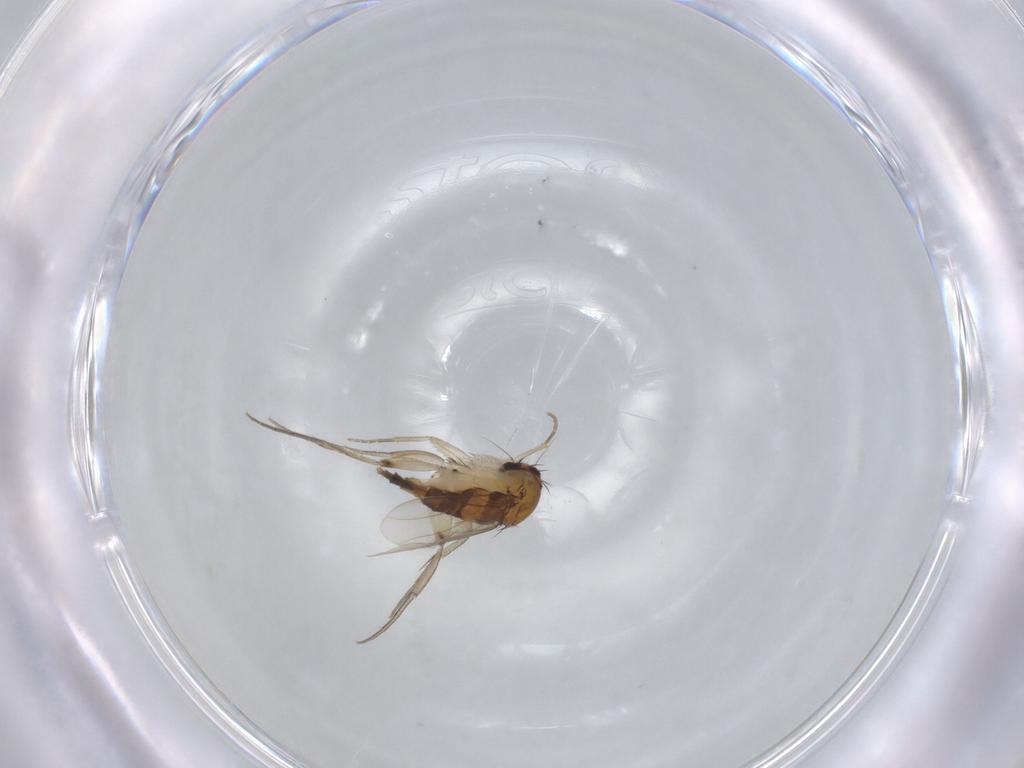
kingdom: Animalia
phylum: Arthropoda
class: Insecta
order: Diptera
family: Phoridae
